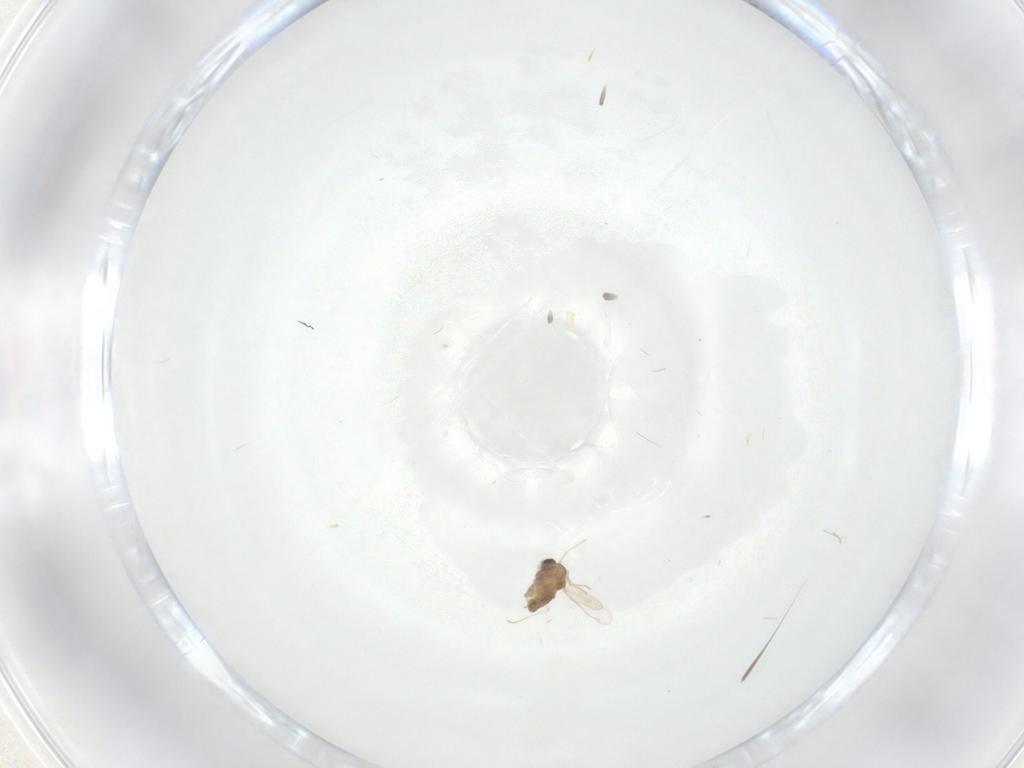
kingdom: Animalia
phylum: Arthropoda
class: Insecta
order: Diptera
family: Chironomidae
